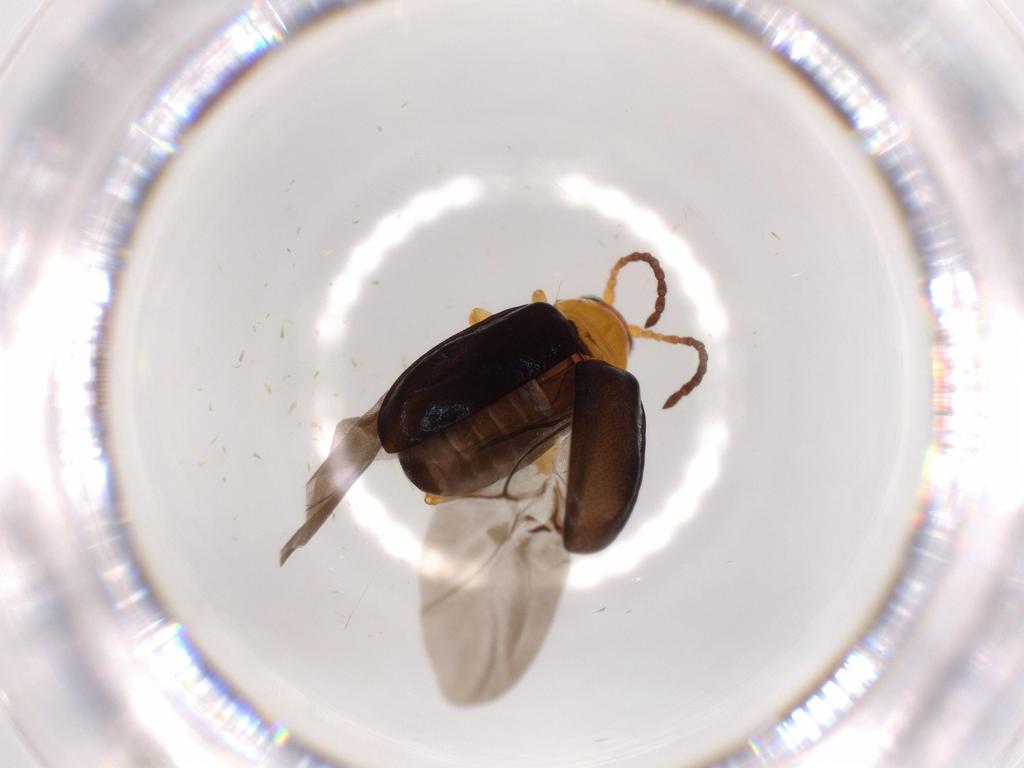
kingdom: Animalia
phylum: Arthropoda
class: Insecta
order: Coleoptera
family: Chrysomelidae
